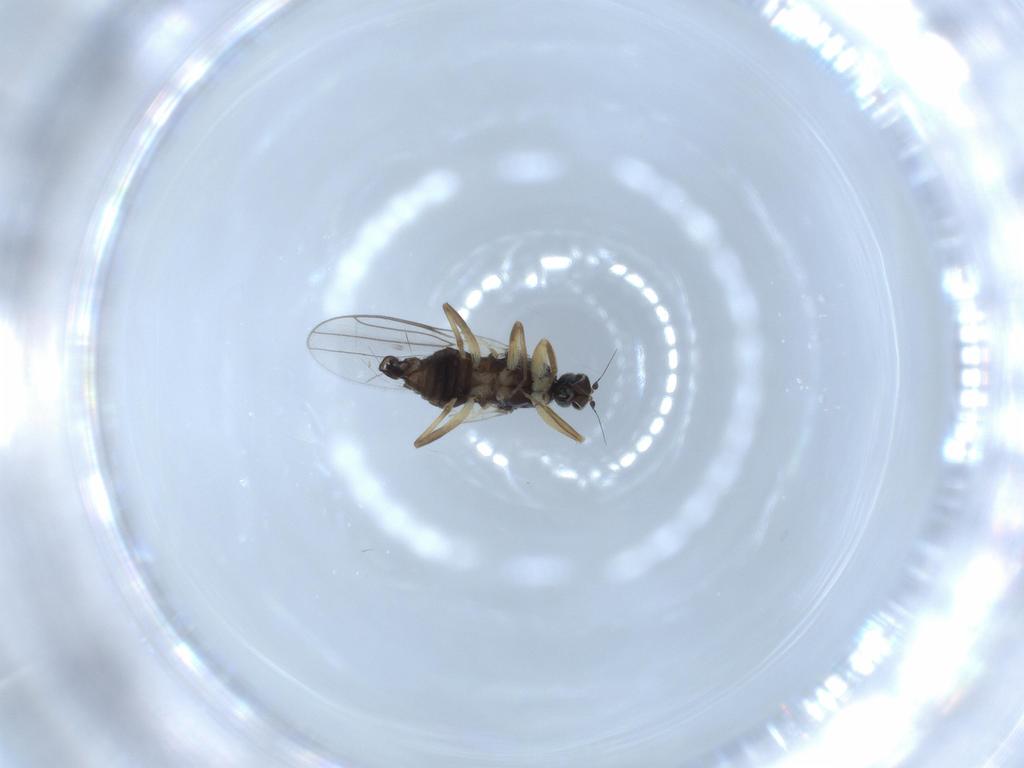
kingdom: Animalia
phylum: Arthropoda
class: Insecta
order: Diptera
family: Hybotidae
